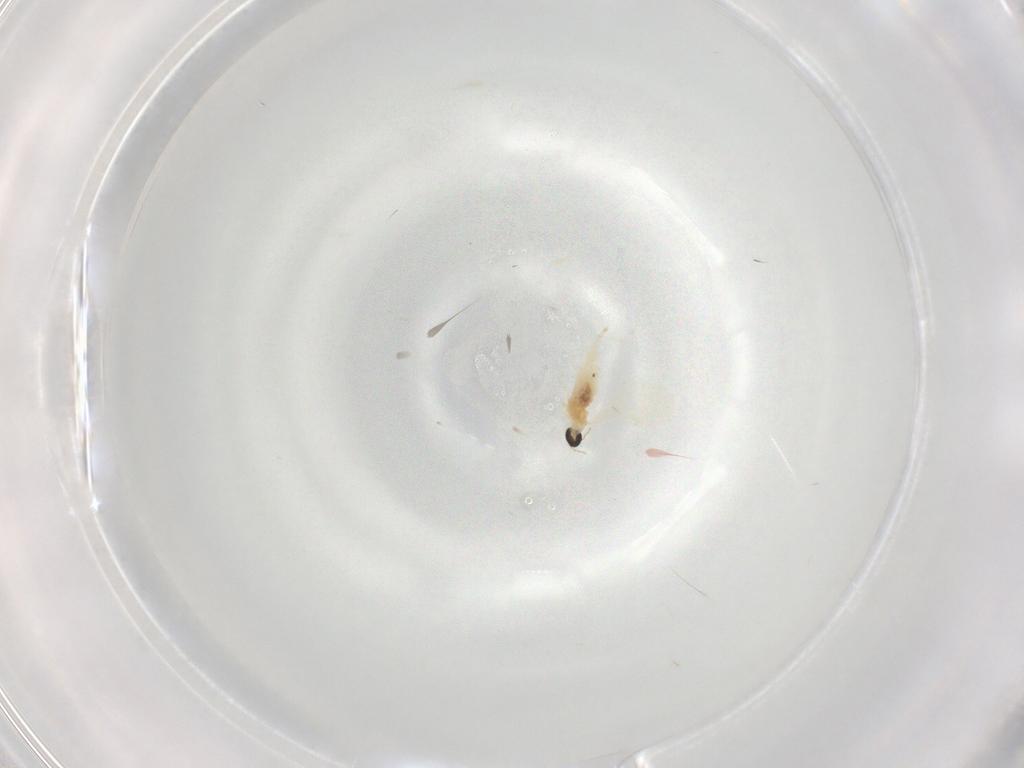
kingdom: Animalia
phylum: Arthropoda
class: Insecta
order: Diptera
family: Cecidomyiidae
